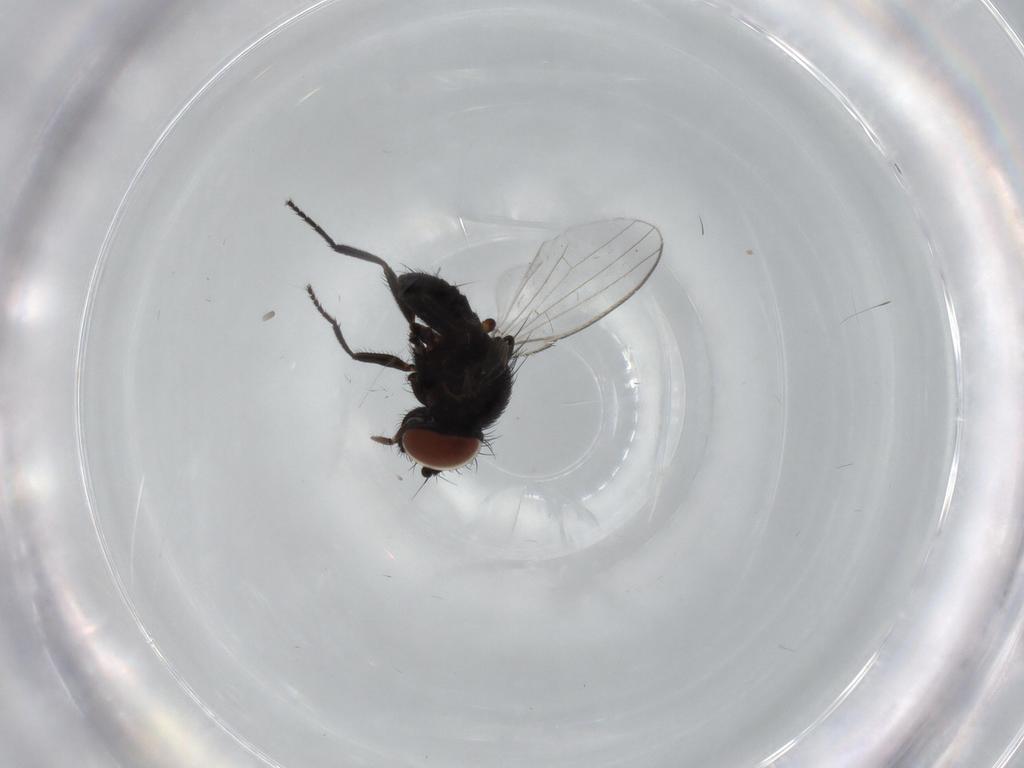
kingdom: Animalia
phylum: Arthropoda
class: Insecta
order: Diptera
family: Milichiidae
